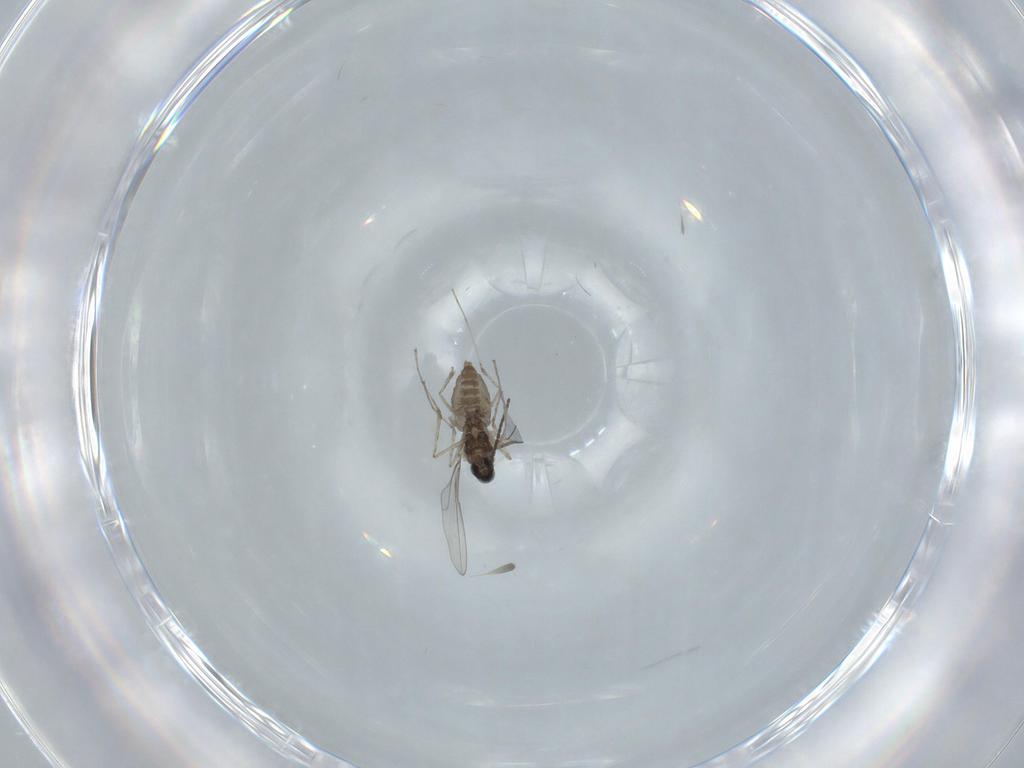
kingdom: Animalia
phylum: Arthropoda
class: Insecta
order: Diptera
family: Cecidomyiidae
